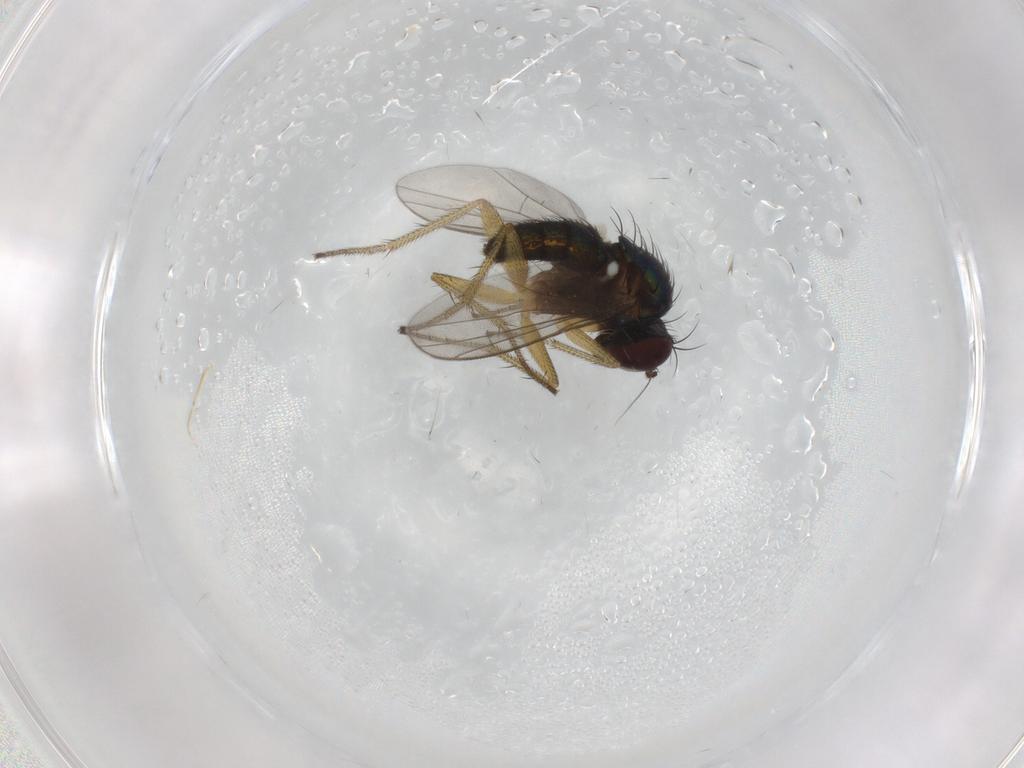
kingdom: Animalia
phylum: Arthropoda
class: Insecta
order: Diptera
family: Dolichopodidae
